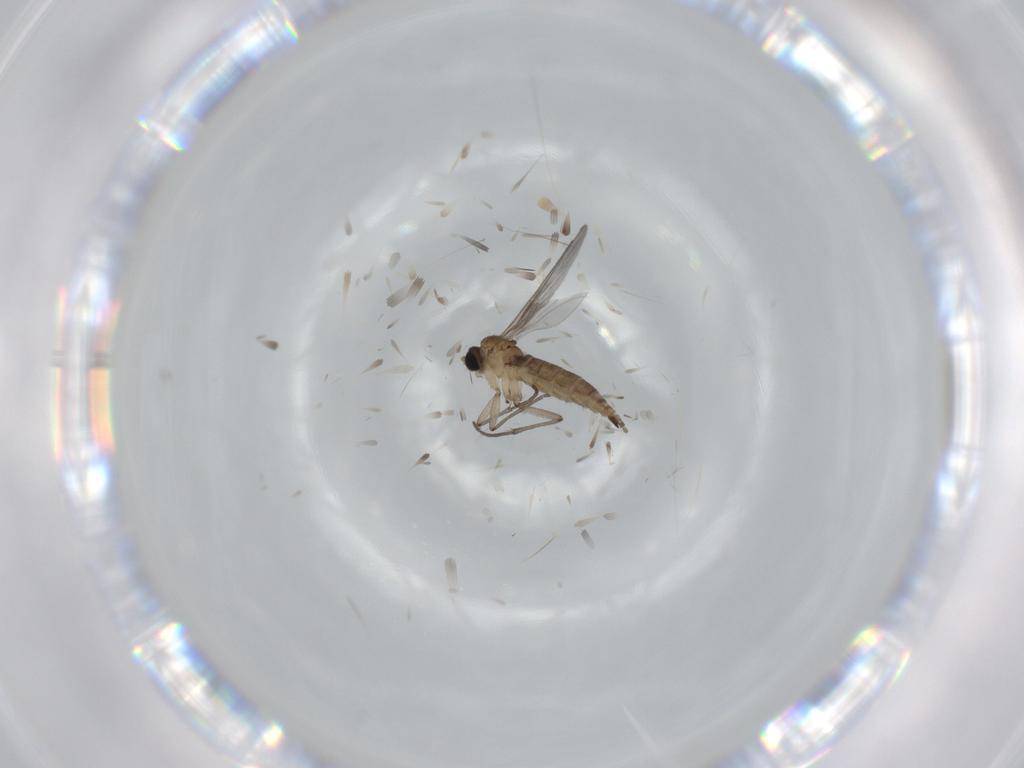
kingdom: Animalia
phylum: Arthropoda
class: Insecta
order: Diptera
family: Sciaridae
